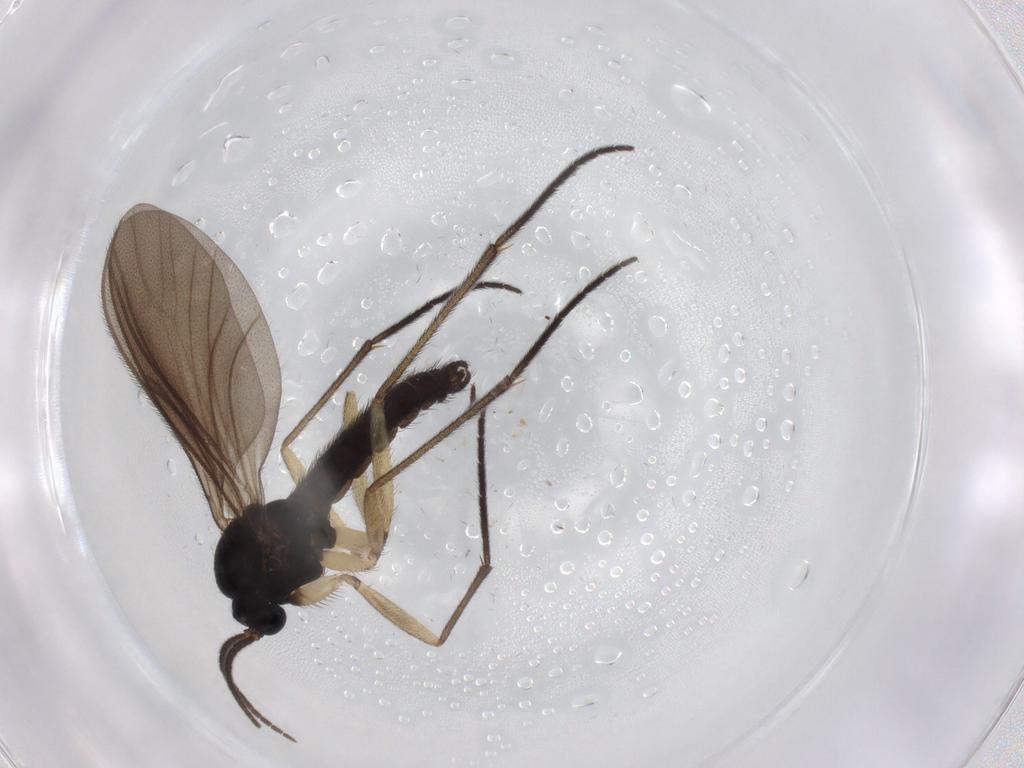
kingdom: Animalia
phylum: Arthropoda
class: Insecta
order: Diptera
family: Sciaridae
